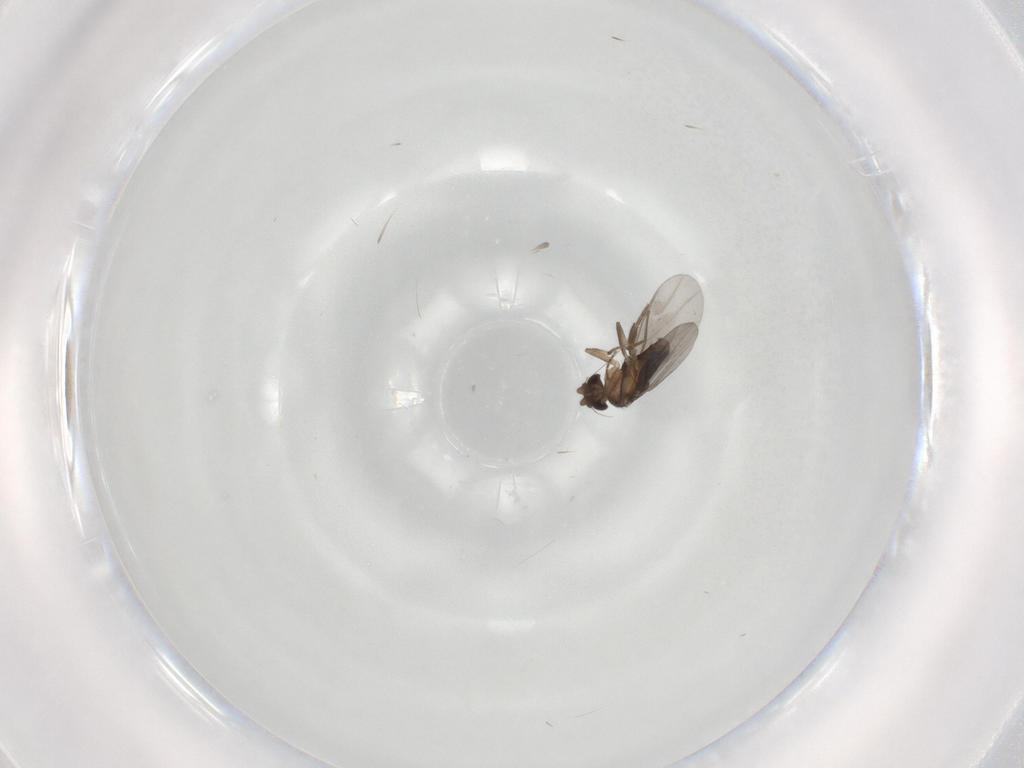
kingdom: Animalia
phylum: Arthropoda
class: Insecta
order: Diptera
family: Phoridae
